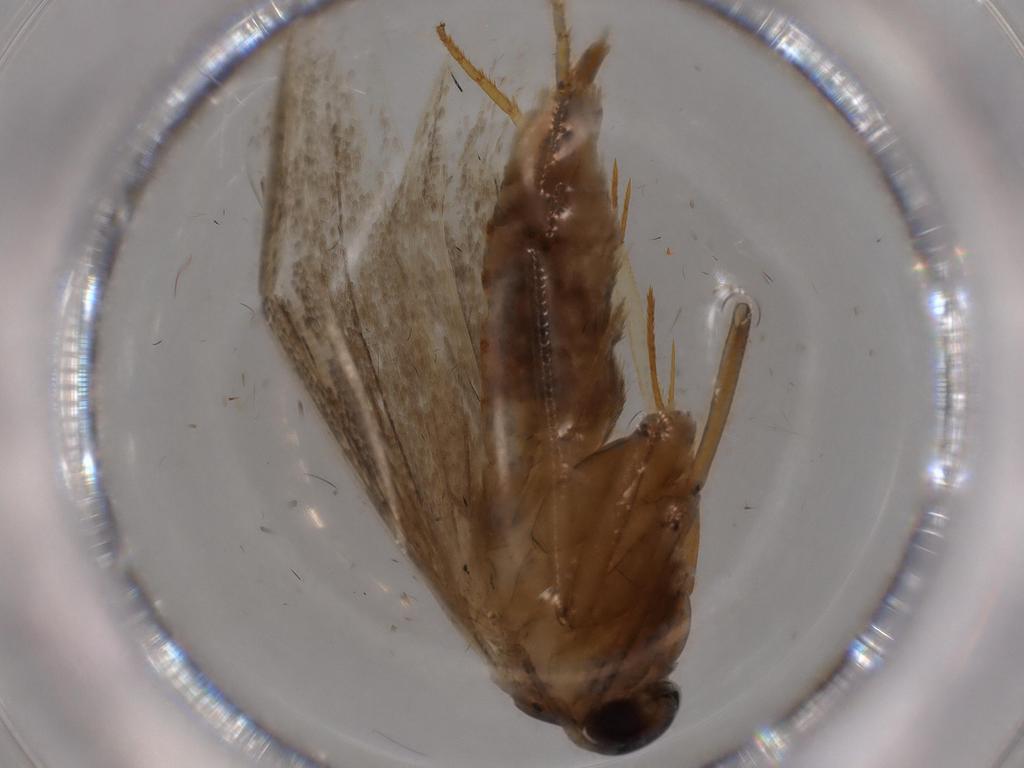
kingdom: Animalia
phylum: Arthropoda
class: Insecta
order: Lepidoptera
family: Blastobasidae
